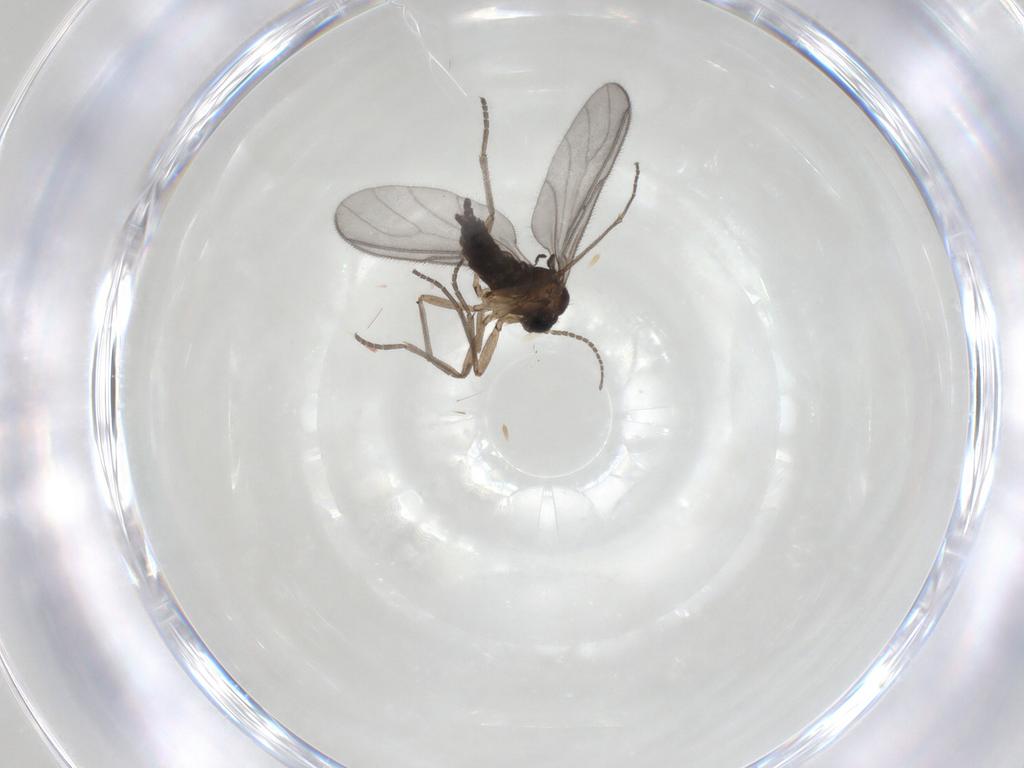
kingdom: Animalia
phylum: Arthropoda
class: Insecta
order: Diptera
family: Sciaridae
